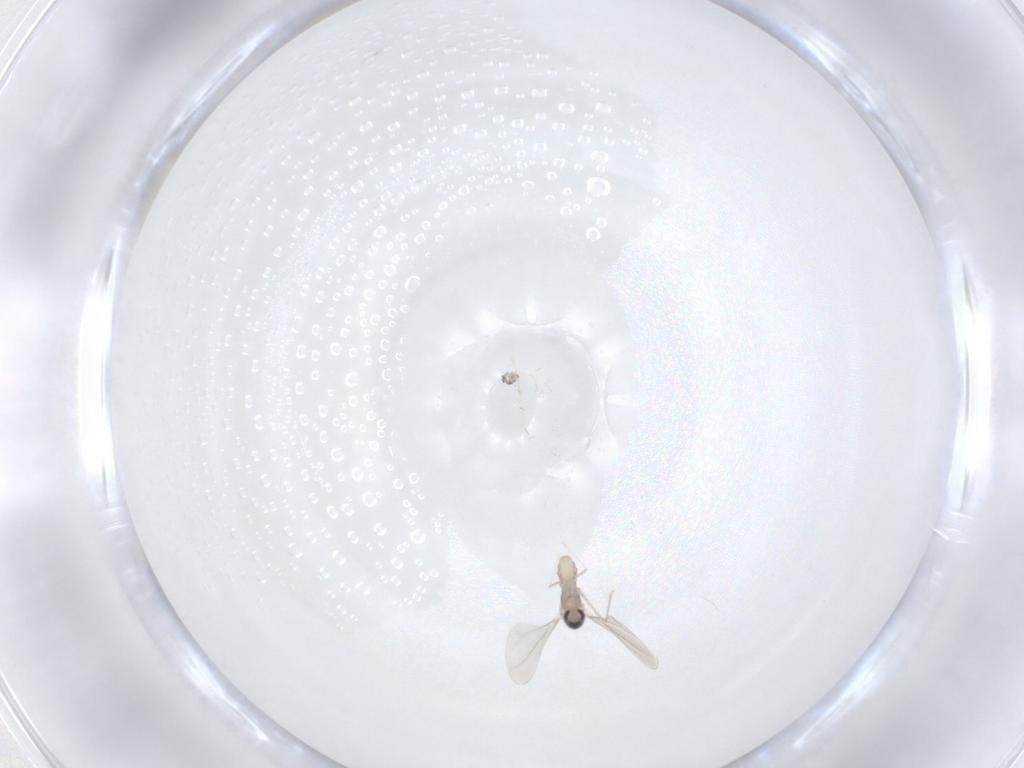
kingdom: Animalia
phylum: Arthropoda
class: Insecta
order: Diptera
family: Phoridae
